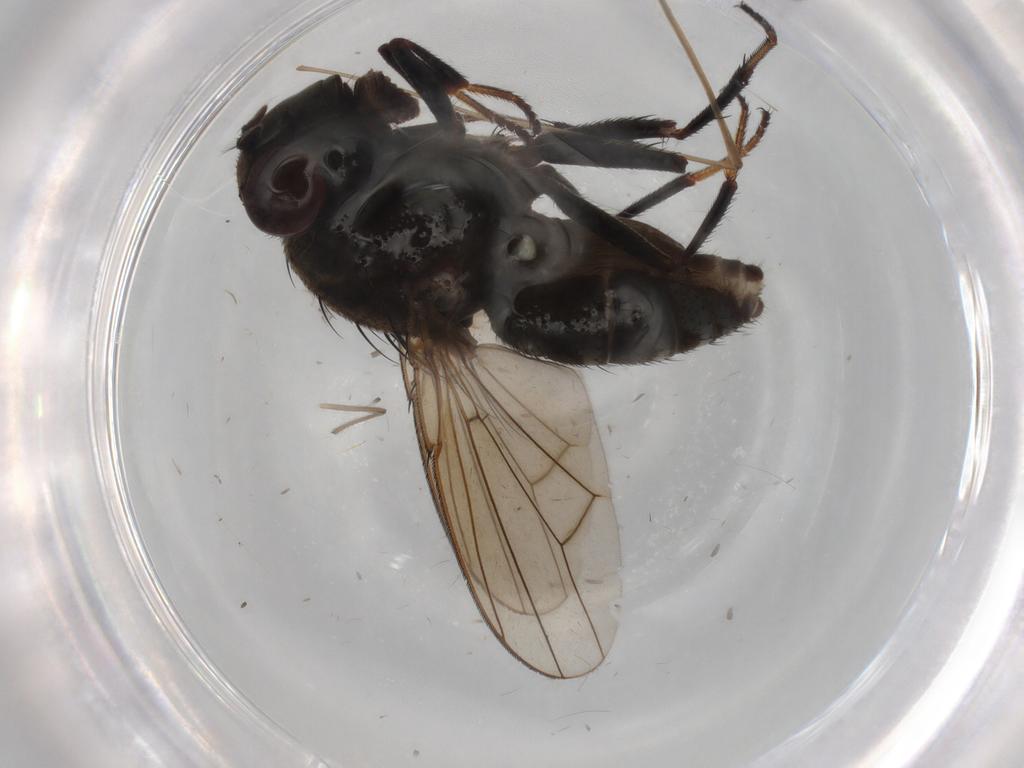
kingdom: Animalia
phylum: Arthropoda
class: Insecta
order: Diptera
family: Ephydridae
